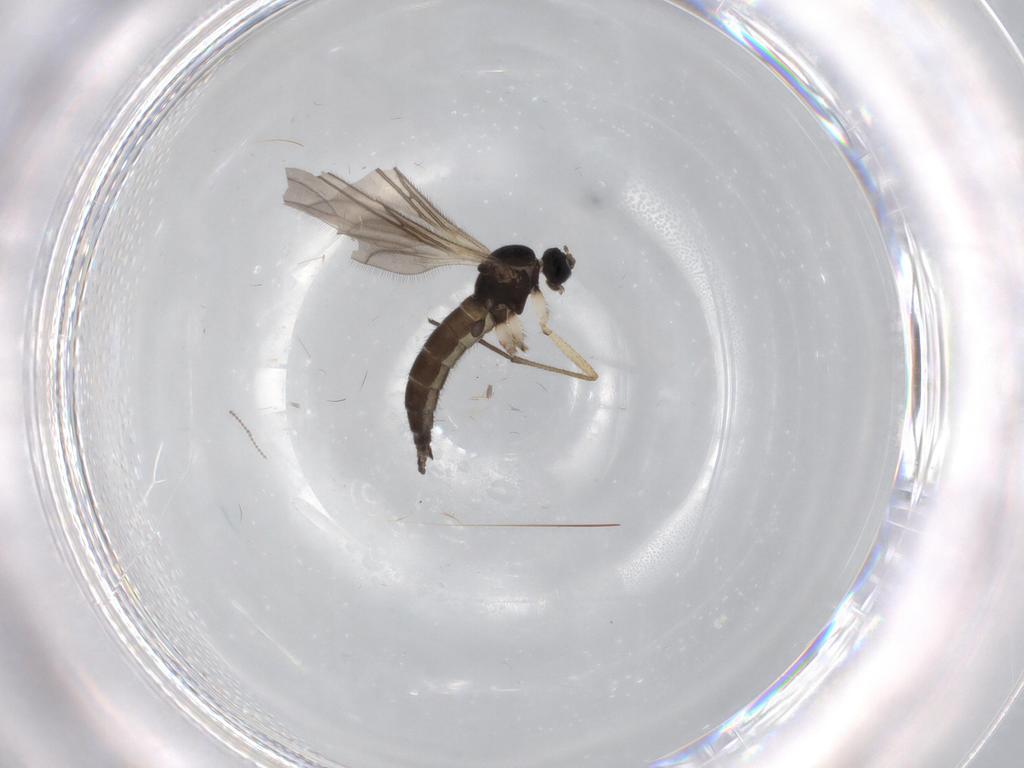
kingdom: Animalia
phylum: Arthropoda
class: Insecta
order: Diptera
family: Sciaridae
